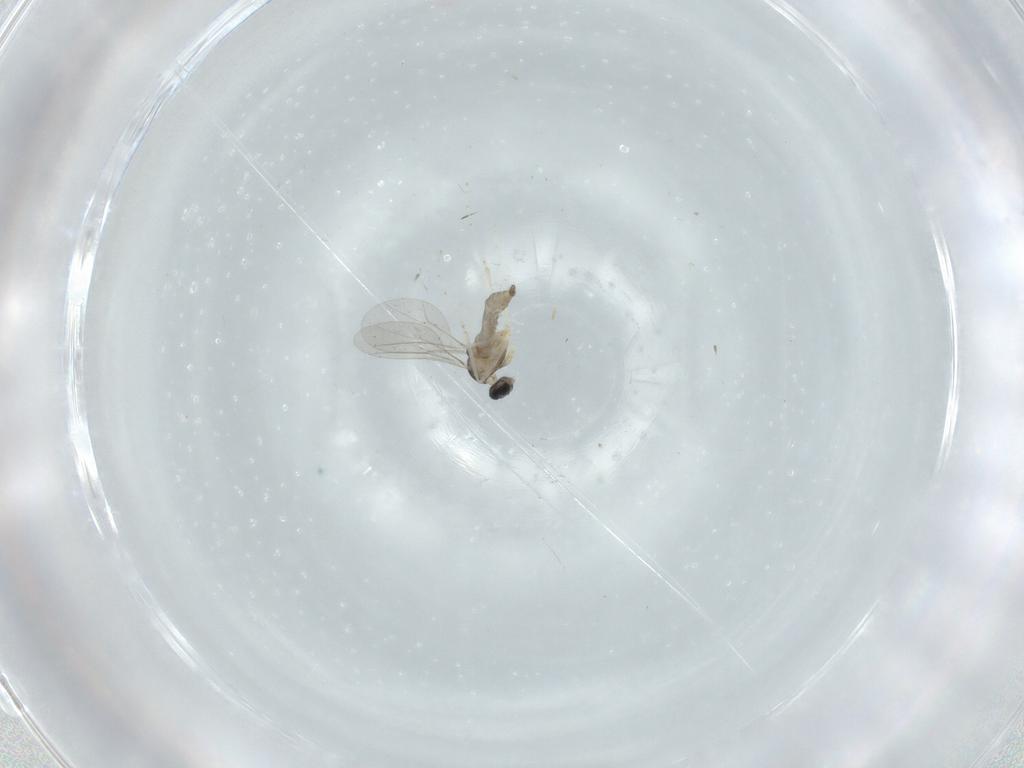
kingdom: Animalia
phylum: Arthropoda
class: Insecta
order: Diptera
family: Cecidomyiidae
